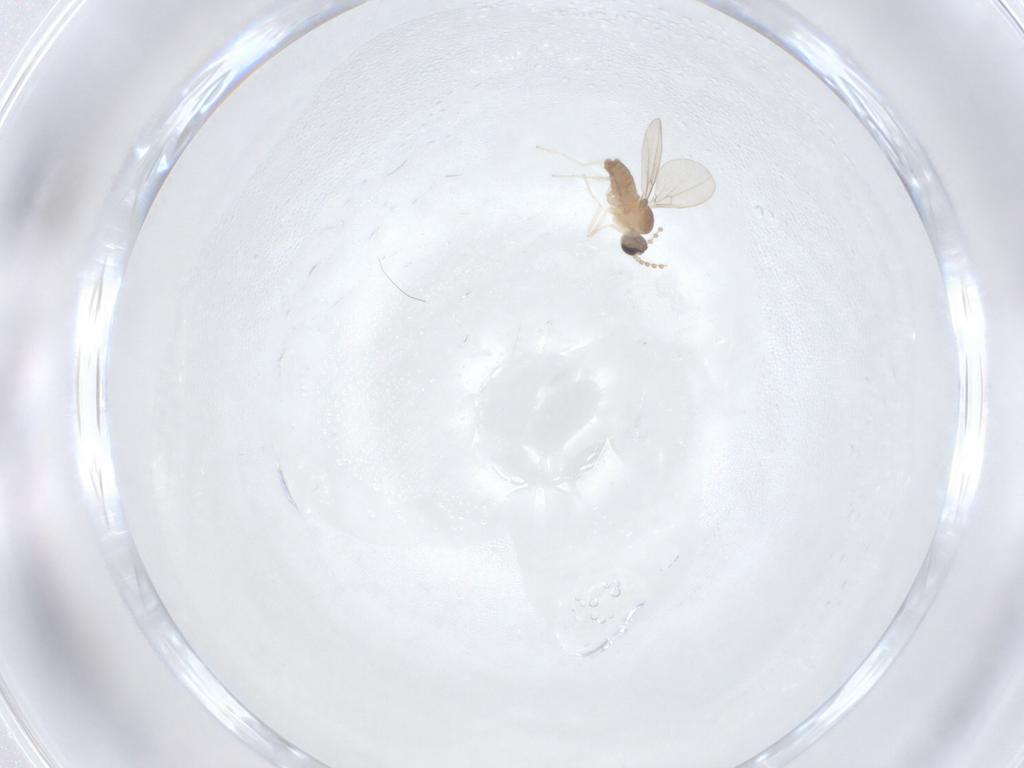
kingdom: Animalia
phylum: Arthropoda
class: Insecta
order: Diptera
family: Cecidomyiidae
